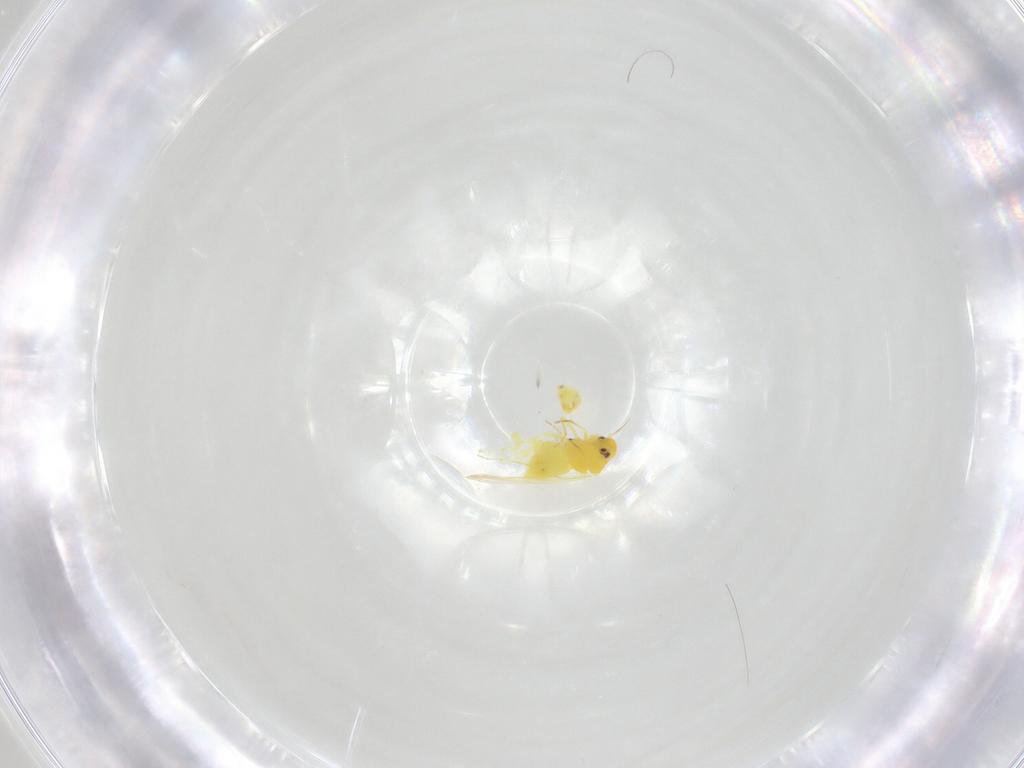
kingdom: Animalia
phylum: Arthropoda
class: Insecta
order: Hemiptera
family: Aleyrodidae
